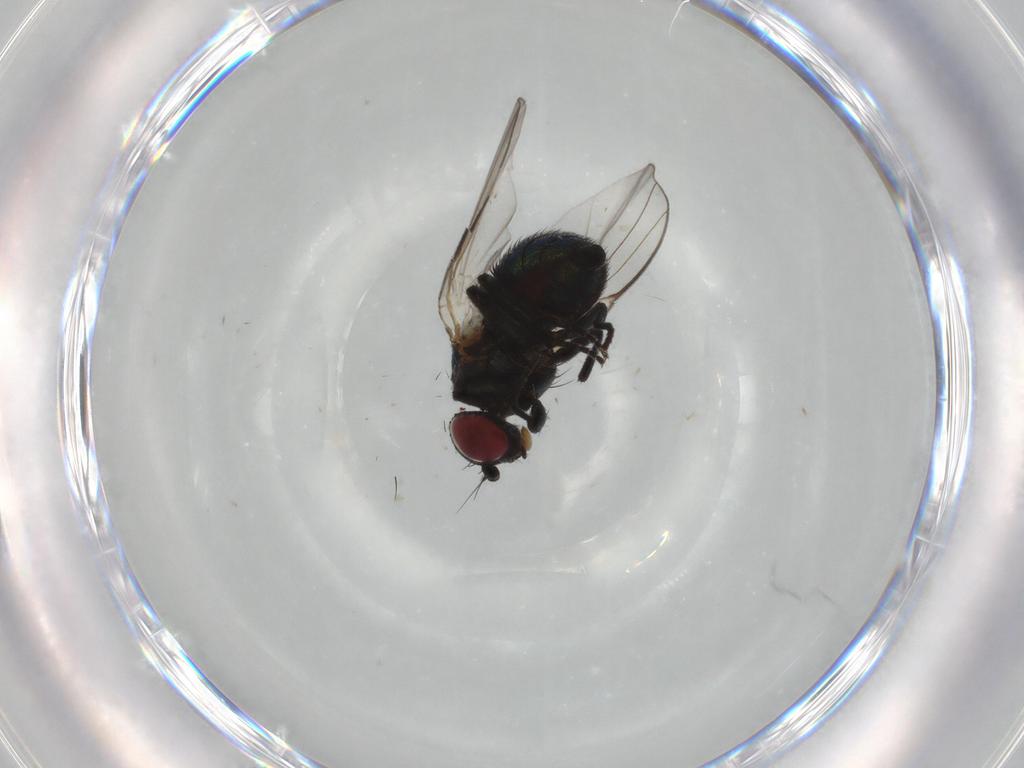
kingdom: Animalia
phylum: Arthropoda
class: Insecta
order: Diptera
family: Agromyzidae
